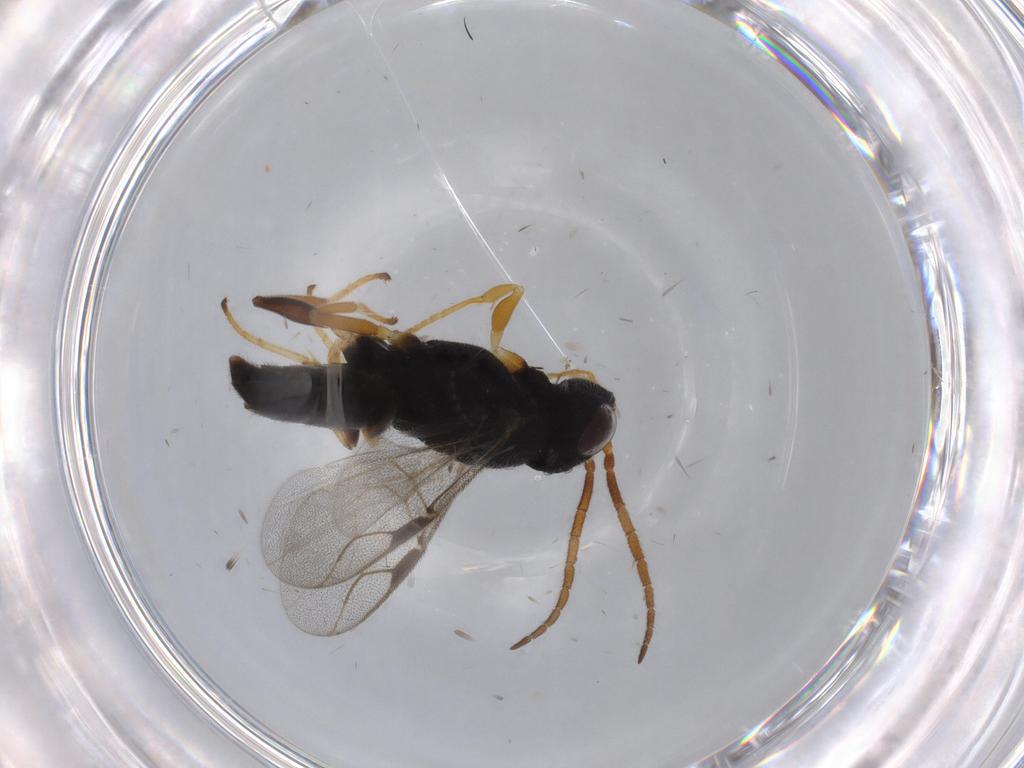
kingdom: Animalia
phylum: Arthropoda
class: Insecta
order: Hymenoptera
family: Dryinidae
